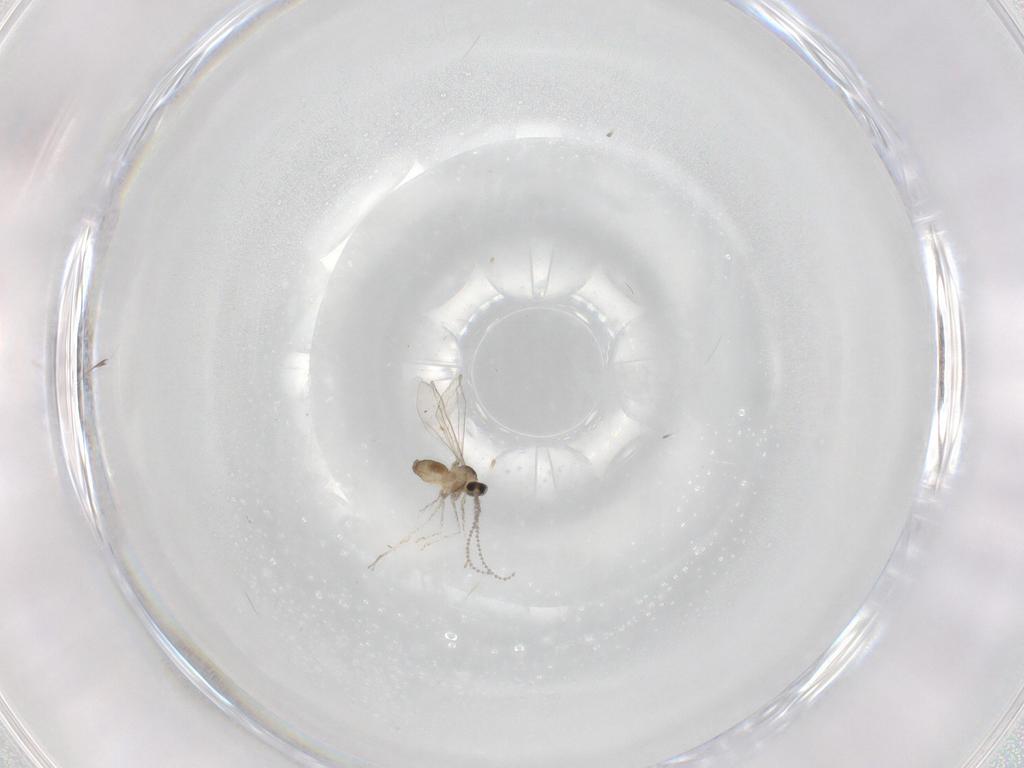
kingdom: Animalia
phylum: Arthropoda
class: Insecta
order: Diptera
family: Cecidomyiidae
